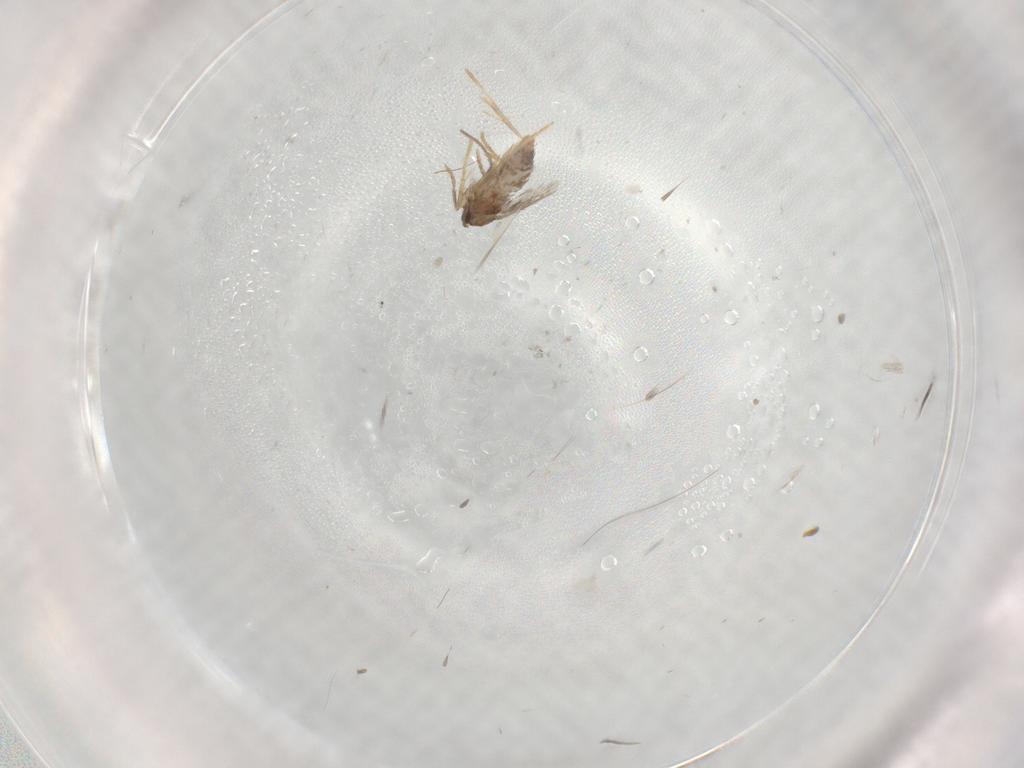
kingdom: Animalia
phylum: Arthropoda
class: Insecta
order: Lepidoptera
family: Nepticulidae
